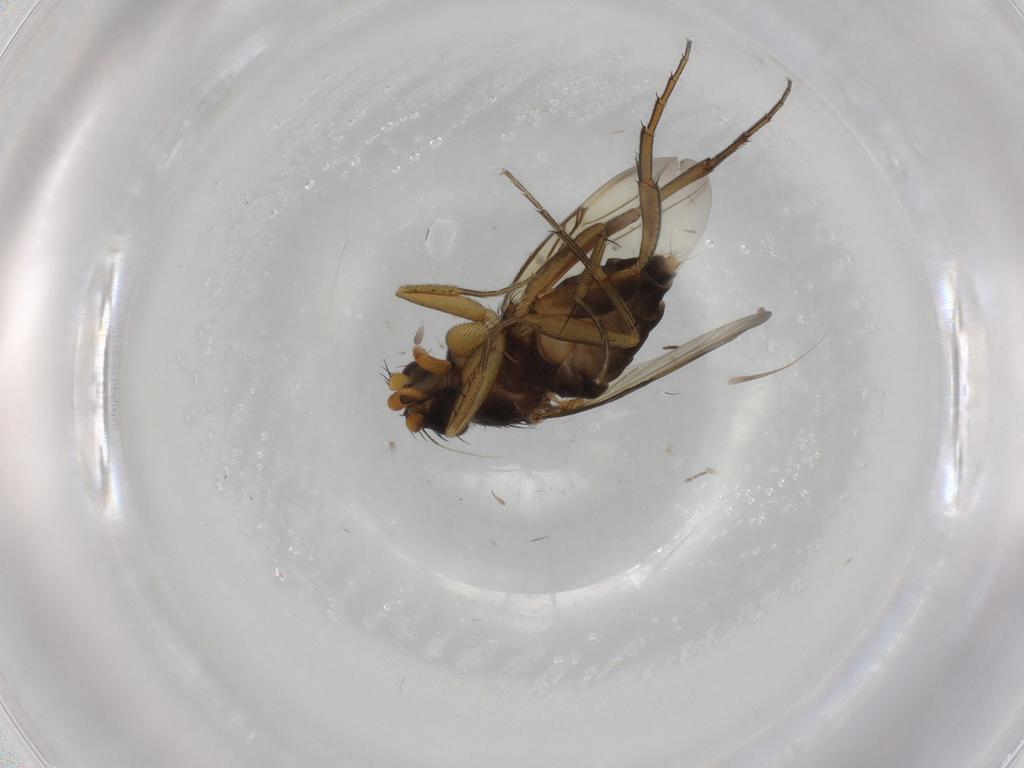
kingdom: Animalia
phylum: Arthropoda
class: Insecta
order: Diptera
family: Phoridae
